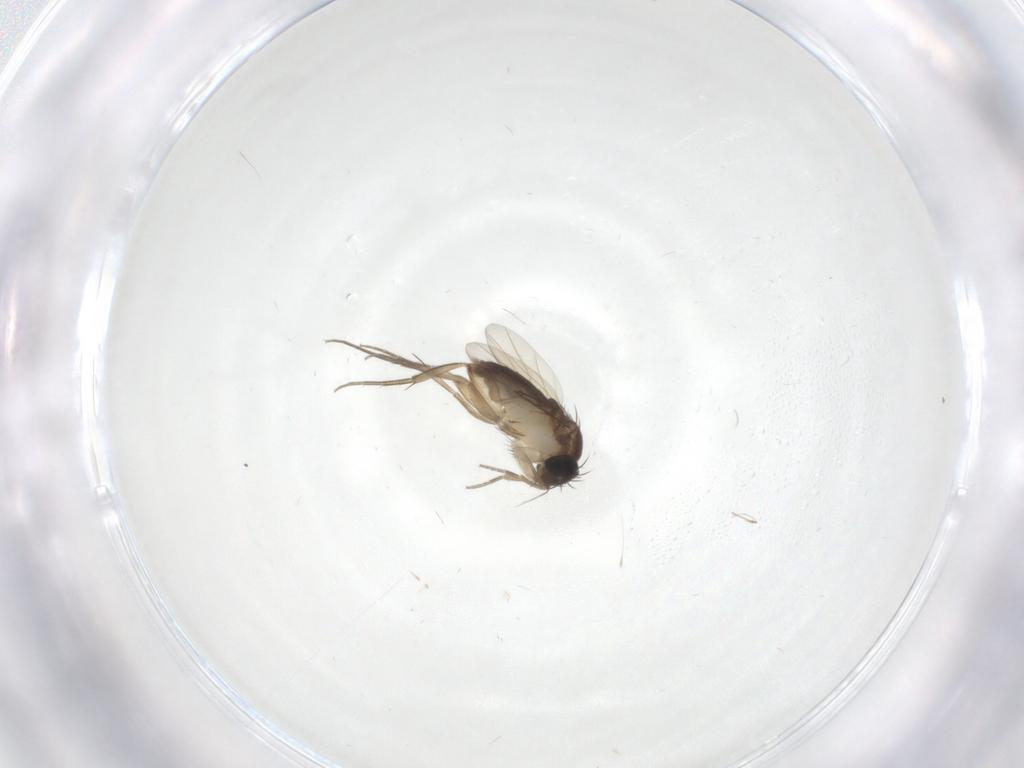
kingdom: Animalia
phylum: Arthropoda
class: Insecta
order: Diptera
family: Phoridae
